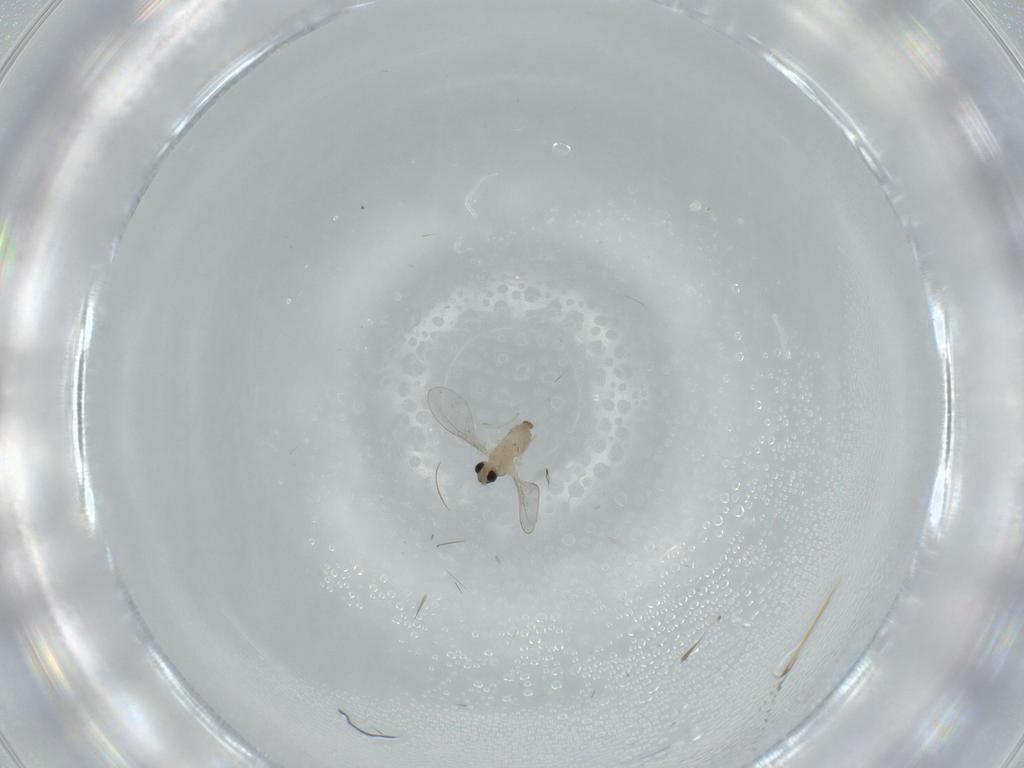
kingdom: Animalia
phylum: Arthropoda
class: Insecta
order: Diptera
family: Cecidomyiidae
